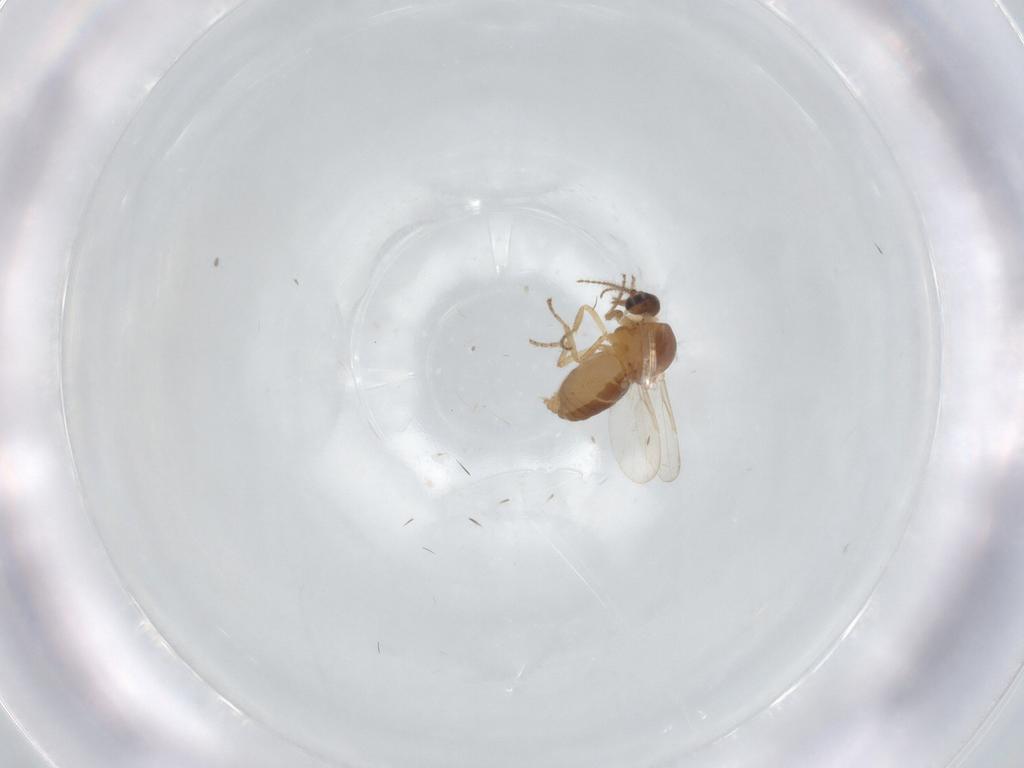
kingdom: Animalia
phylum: Arthropoda
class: Insecta
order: Diptera
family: Ceratopogonidae
